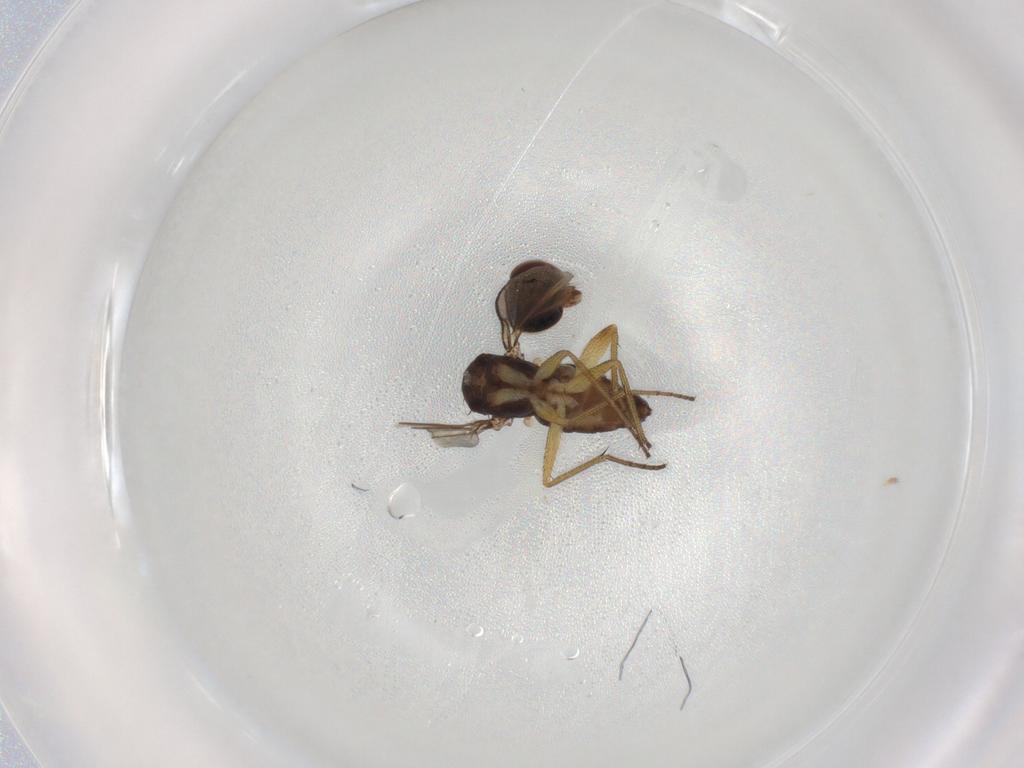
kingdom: Animalia
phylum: Arthropoda
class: Insecta
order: Diptera
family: Dolichopodidae
